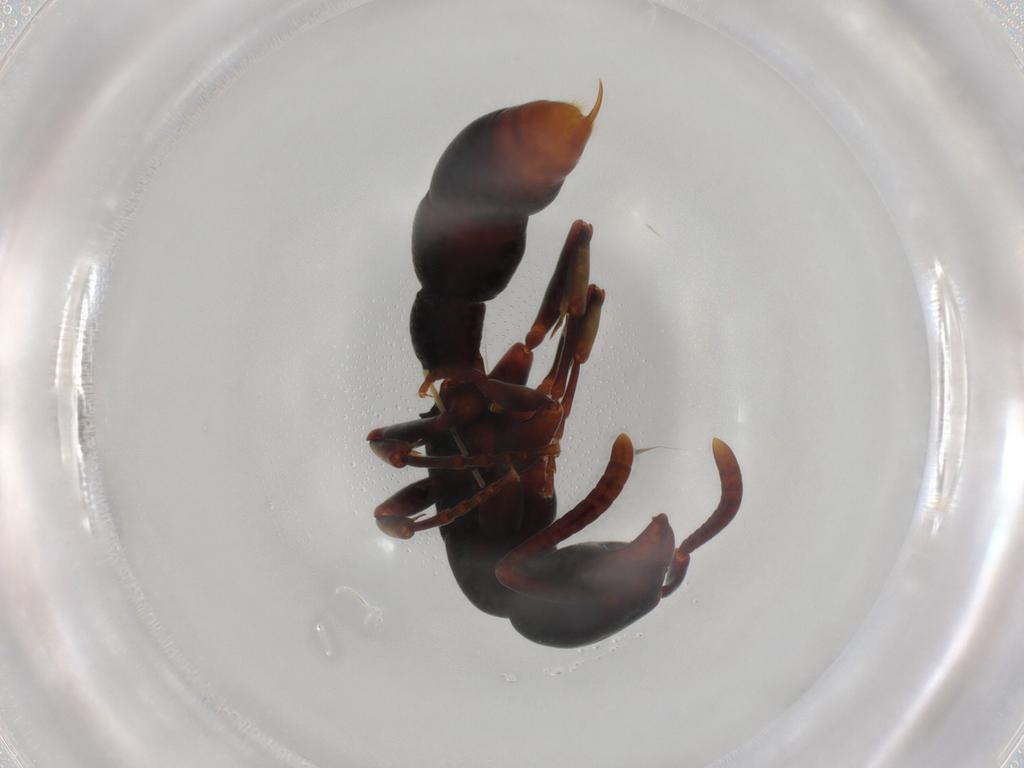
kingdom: Animalia
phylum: Arthropoda
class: Insecta
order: Hymenoptera
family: Formicidae
